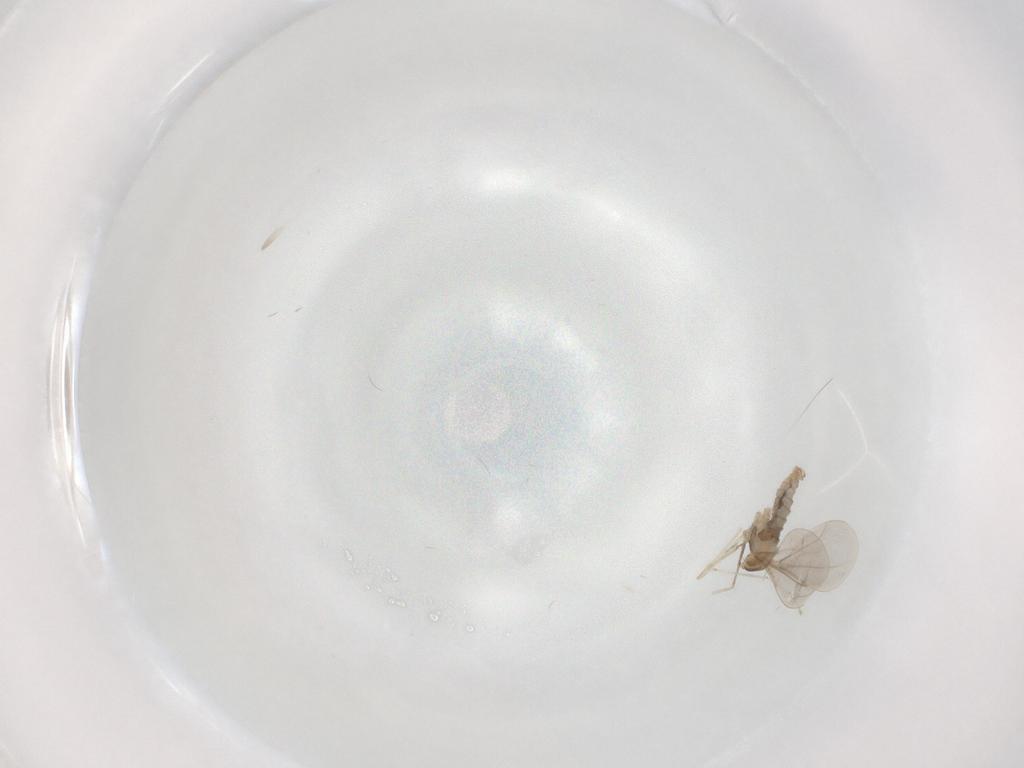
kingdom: Animalia
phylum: Arthropoda
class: Insecta
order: Diptera
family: Cecidomyiidae
